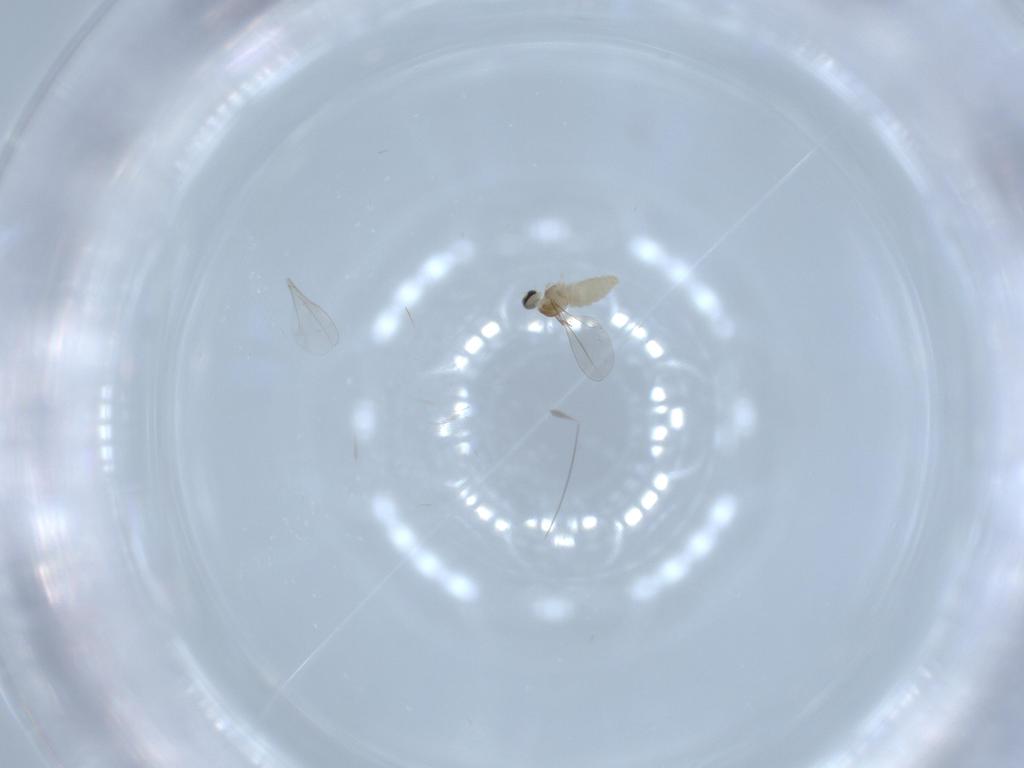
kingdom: Animalia
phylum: Arthropoda
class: Insecta
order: Diptera
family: Cecidomyiidae
